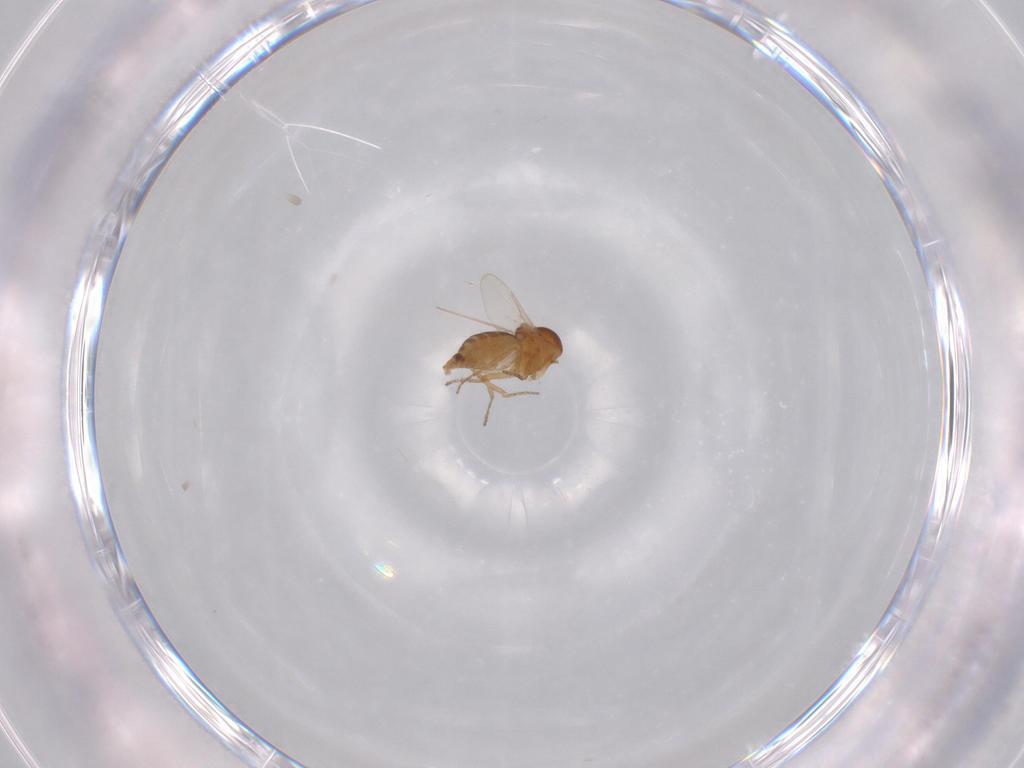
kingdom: Animalia
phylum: Arthropoda
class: Insecta
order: Diptera
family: Ceratopogonidae
